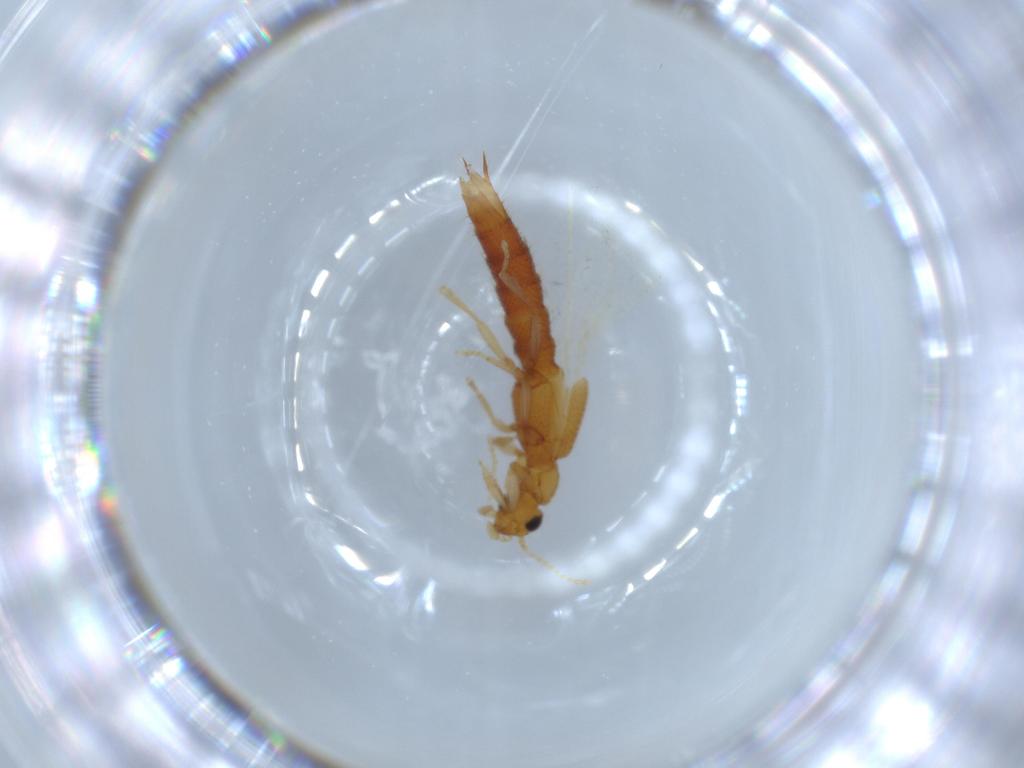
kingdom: Animalia
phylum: Arthropoda
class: Insecta
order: Coleoptera
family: Staphylinidae
